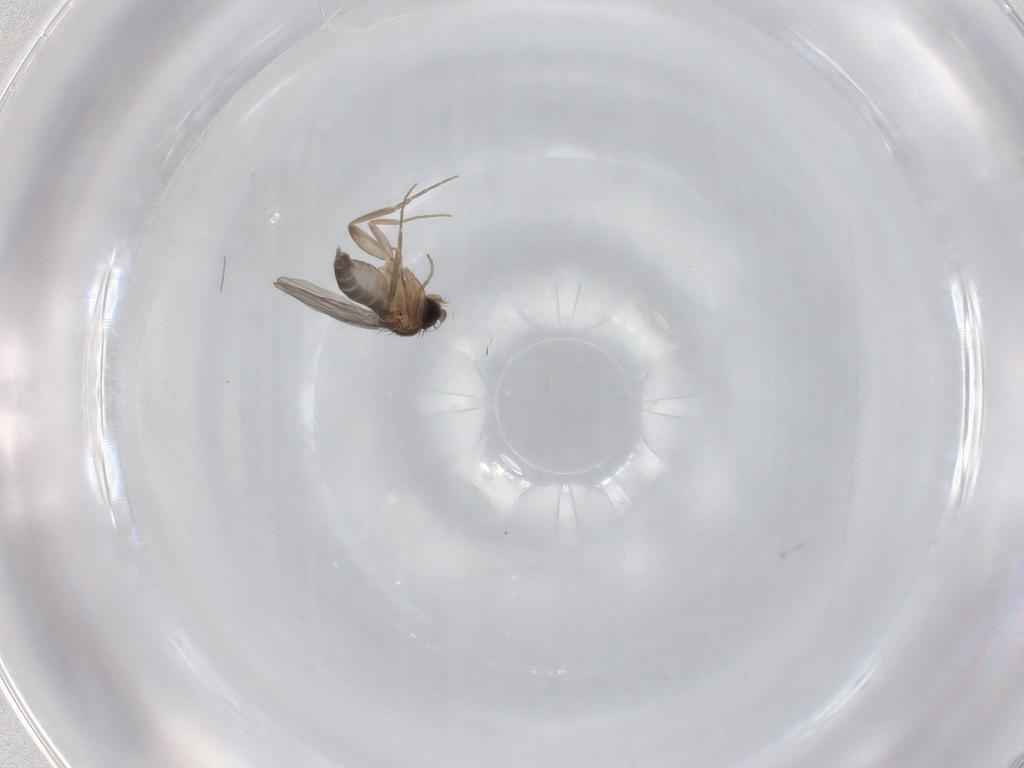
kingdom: Animalia
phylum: Arthropoda
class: Insecta
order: Diptera
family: Phoridae
